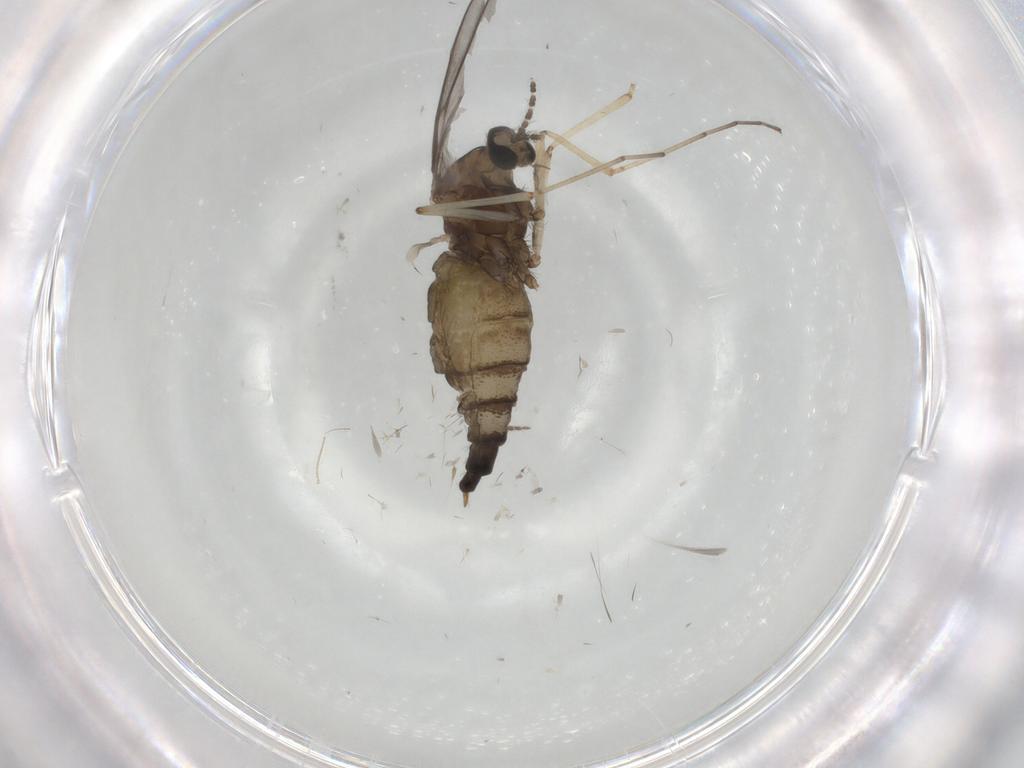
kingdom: Animalia
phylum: Arthropoda
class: Insecta
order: Diptera
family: Cecidomyiidae
